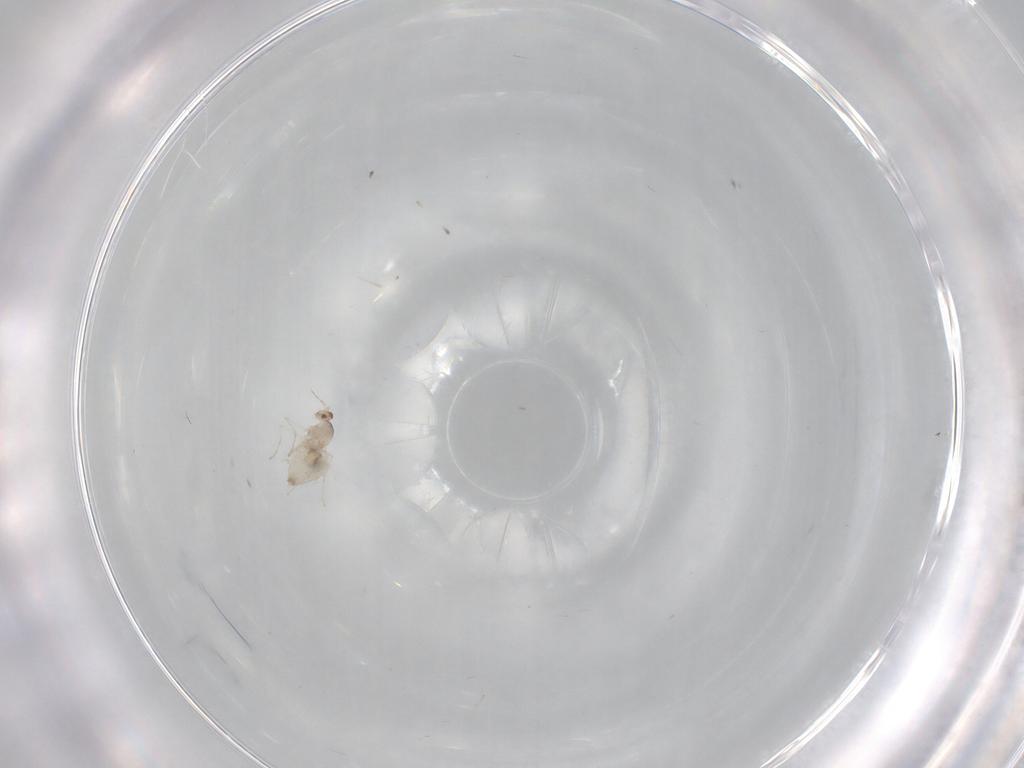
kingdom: Animalia
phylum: Arthropoda
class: Insecta
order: Diptera
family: Cecidomyiidae
